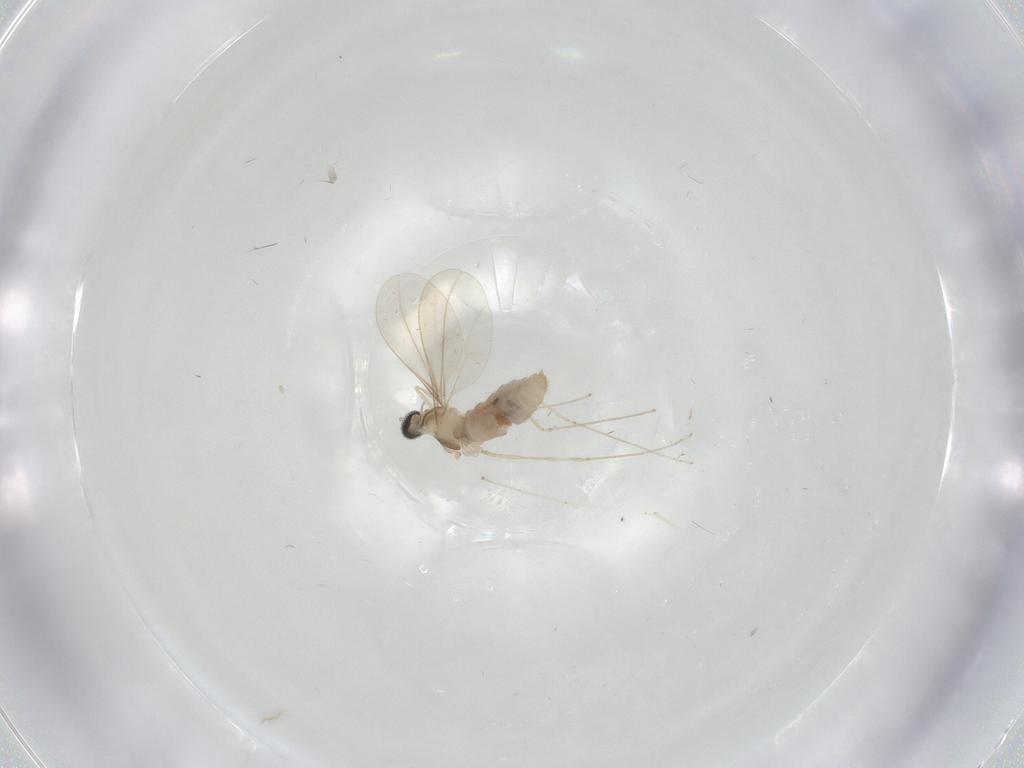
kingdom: Animalia
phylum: Arthropoda
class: Insecta
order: Diptera
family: Cecidomyiidae
